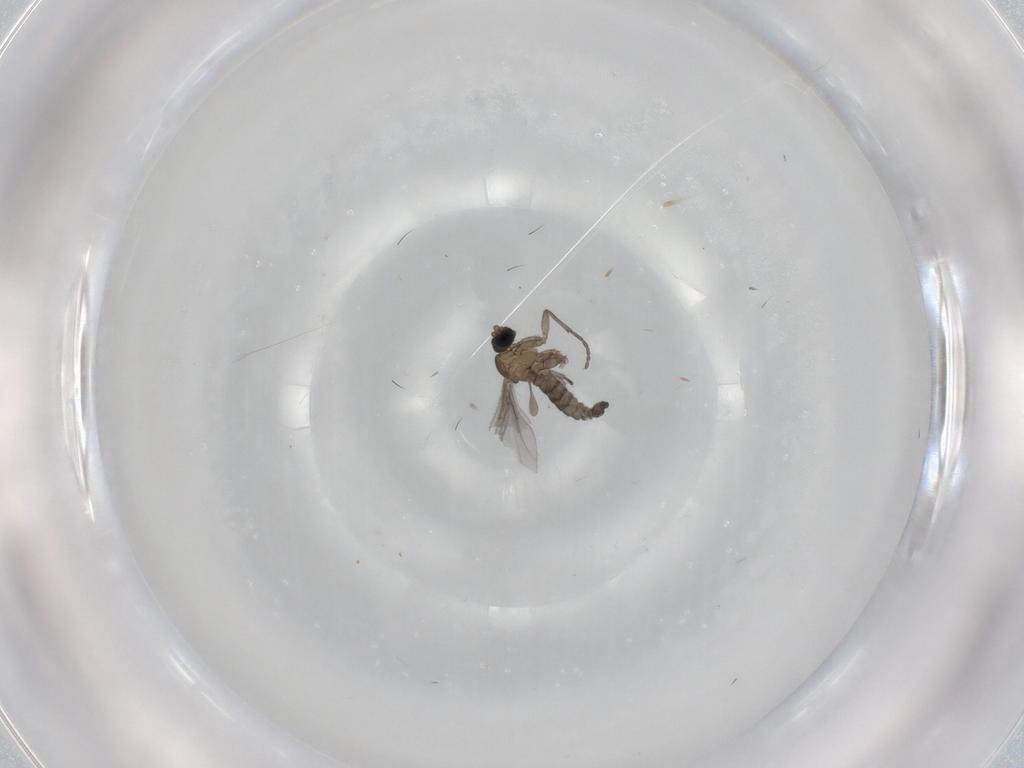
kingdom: Animalia
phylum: Arthropoda
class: Insecta
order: Diptera
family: Sciaridae
